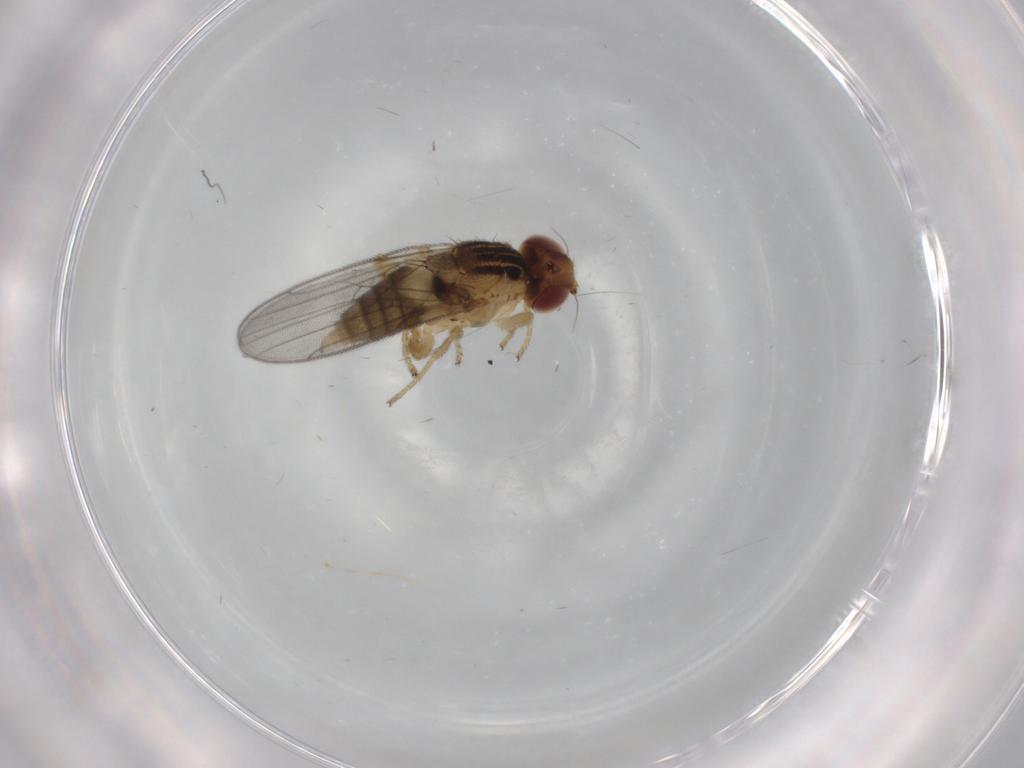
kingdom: Animalia
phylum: Arthropoda
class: Insecta
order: Diptera
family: Chloropidae
